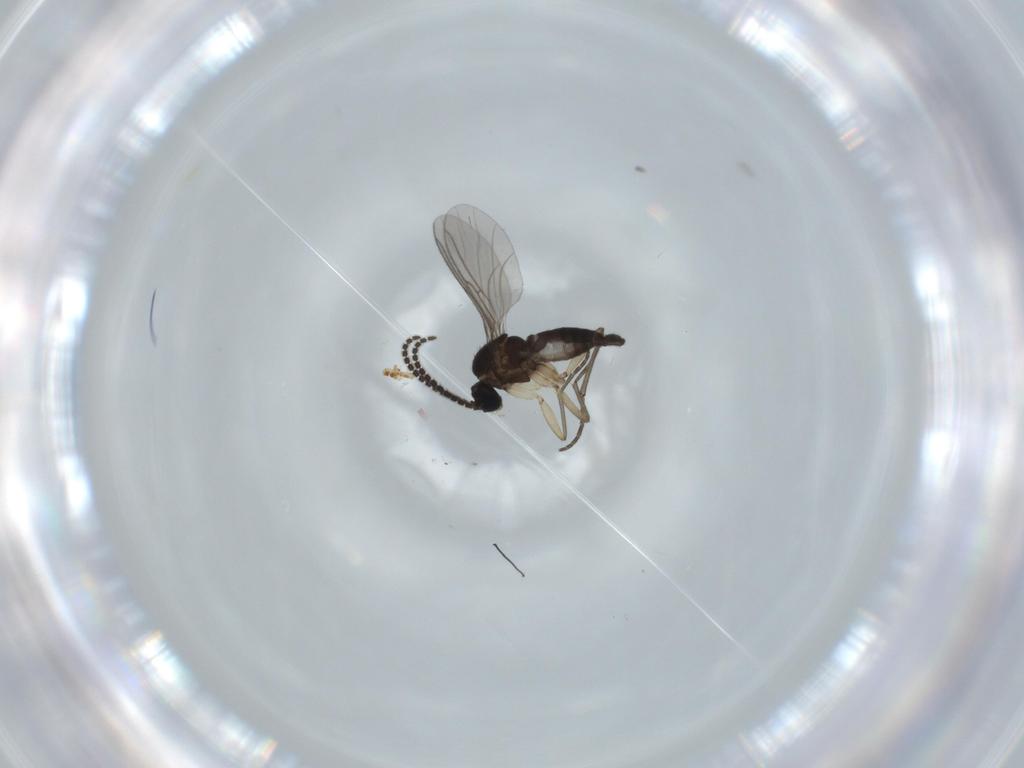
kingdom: Animalia
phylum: Arthropoda
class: Insecta
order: Diptera
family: Sciaridae
